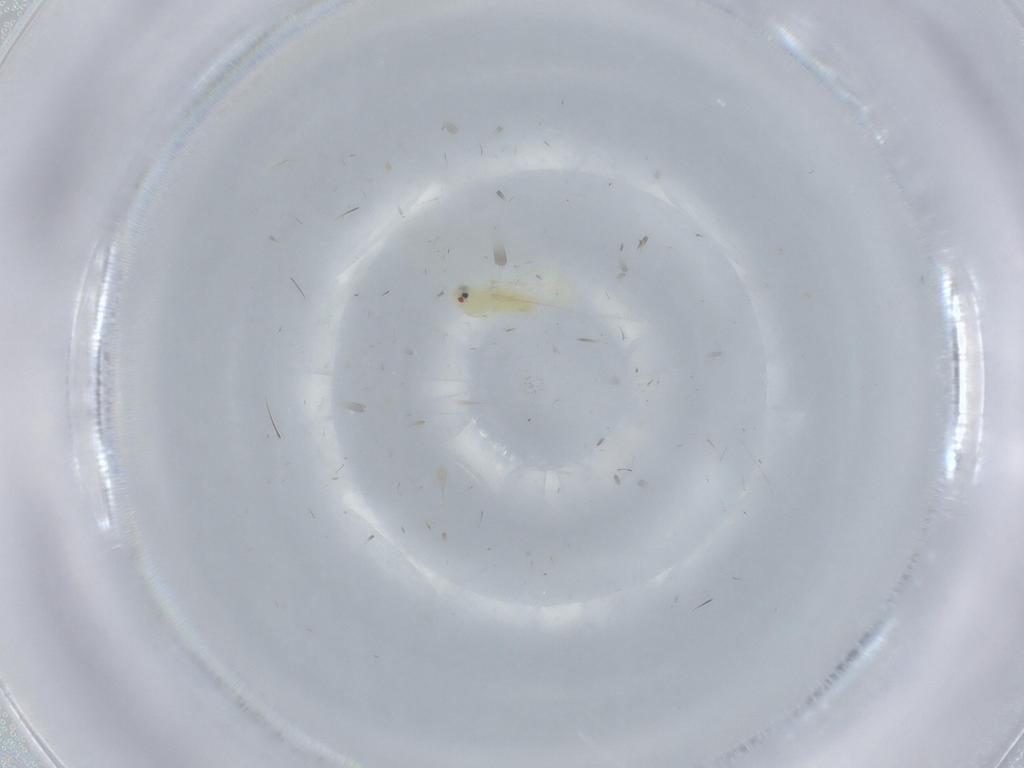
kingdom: Animalia
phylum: Arthropoda
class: Insecta
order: Hemiptera
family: Aleyrodidae
